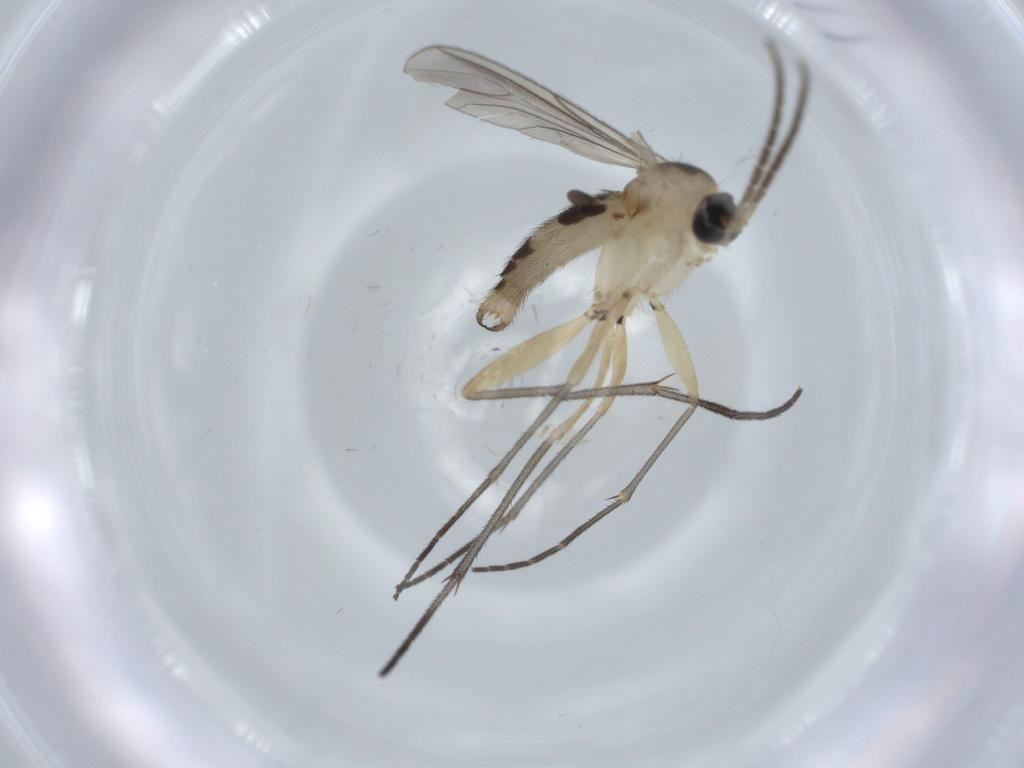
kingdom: Animalia
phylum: Arthropoda
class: Insecta
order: Diptera
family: Sciaridae
